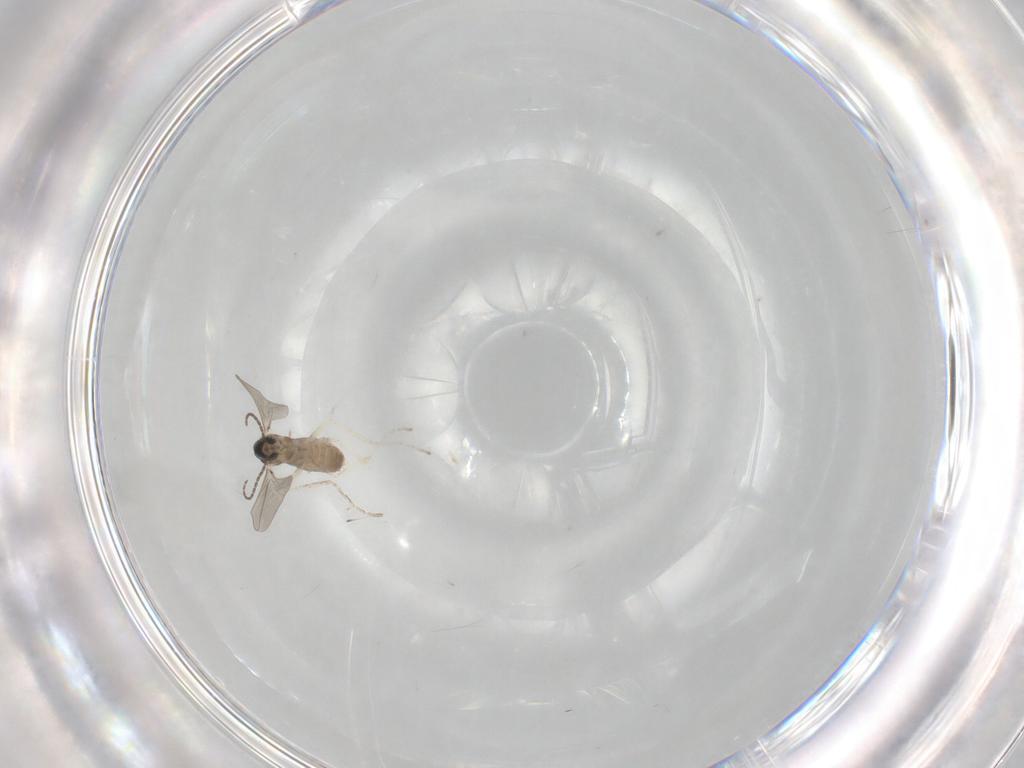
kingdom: Animalia
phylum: Arthropoda
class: Insecta
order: Diptera
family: Cecidomyiidae
